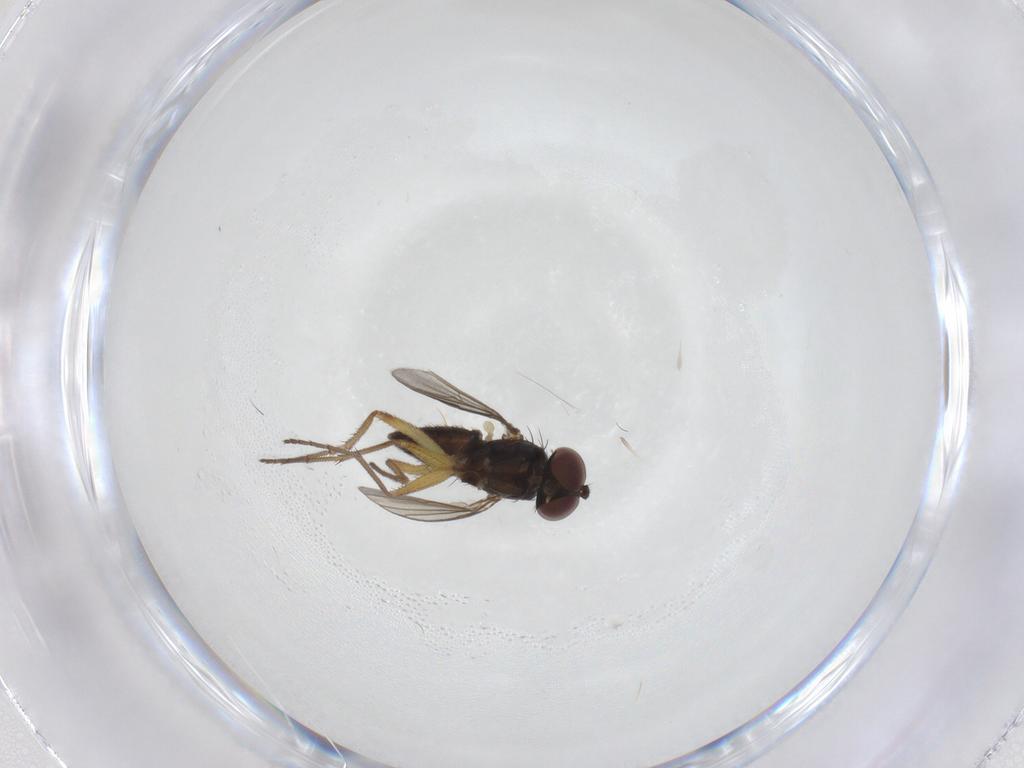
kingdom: Animalia
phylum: Arthropoda
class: Insecta
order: Diptera
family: Dolichopodidae
